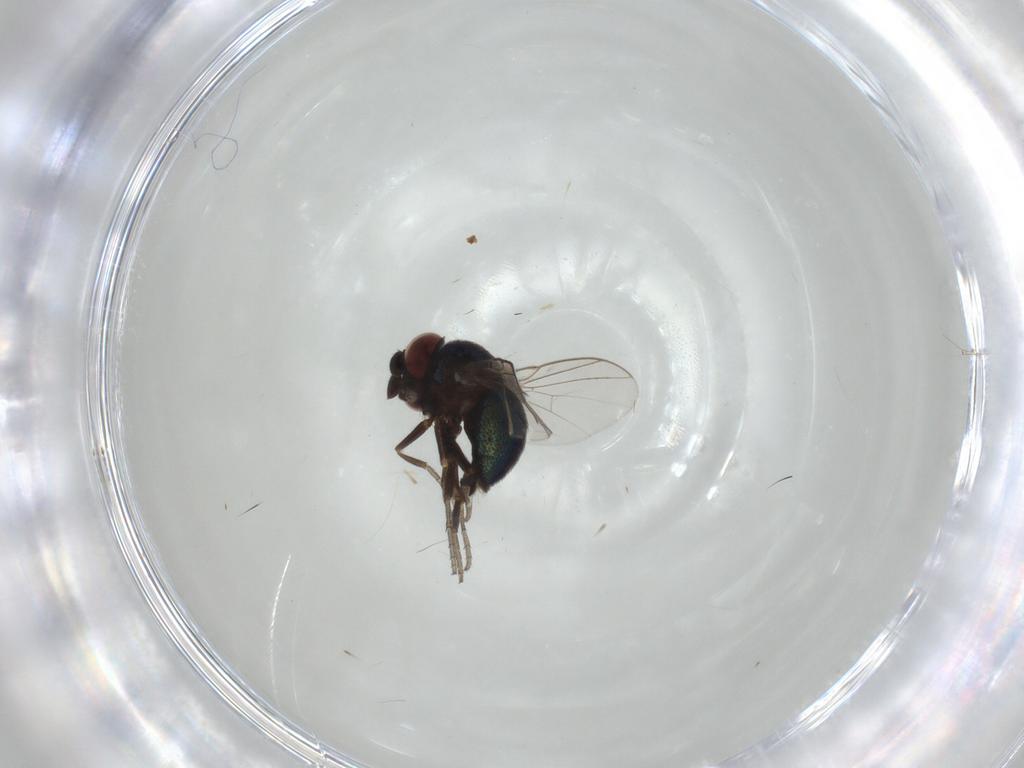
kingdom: Animalia
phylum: Arthropoda
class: Insecta
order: Diptera
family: Cryptochetidae
